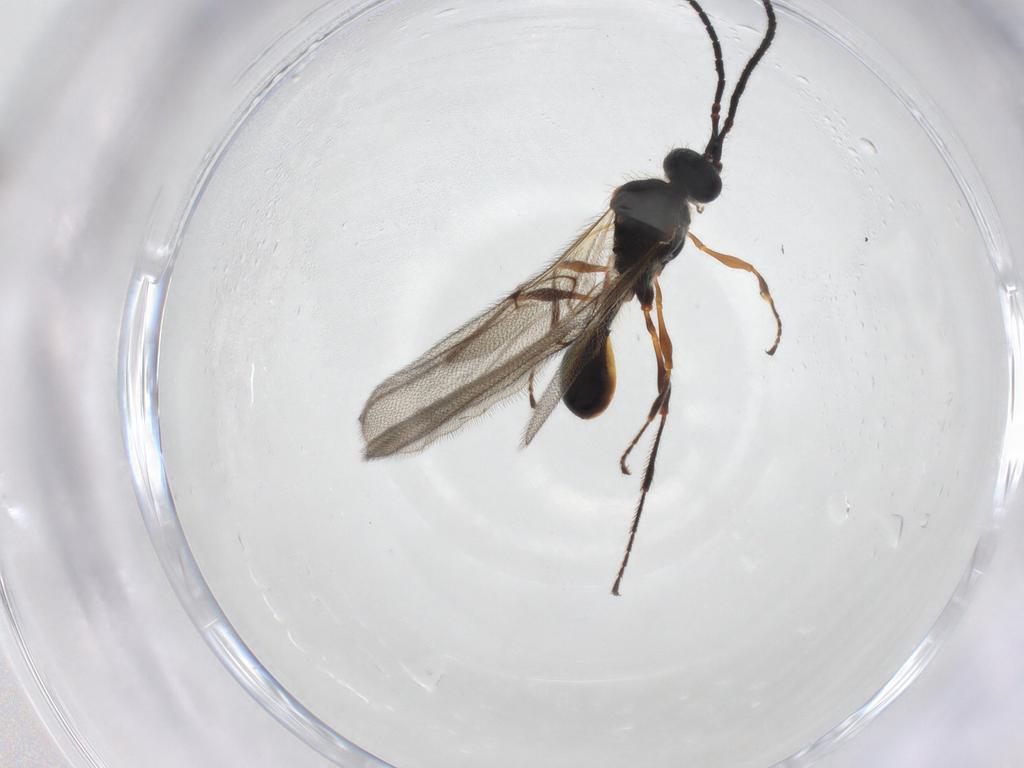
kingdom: Animalia
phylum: Arthropoda
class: Insecta
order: Hymenoptera
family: Diapriidae
